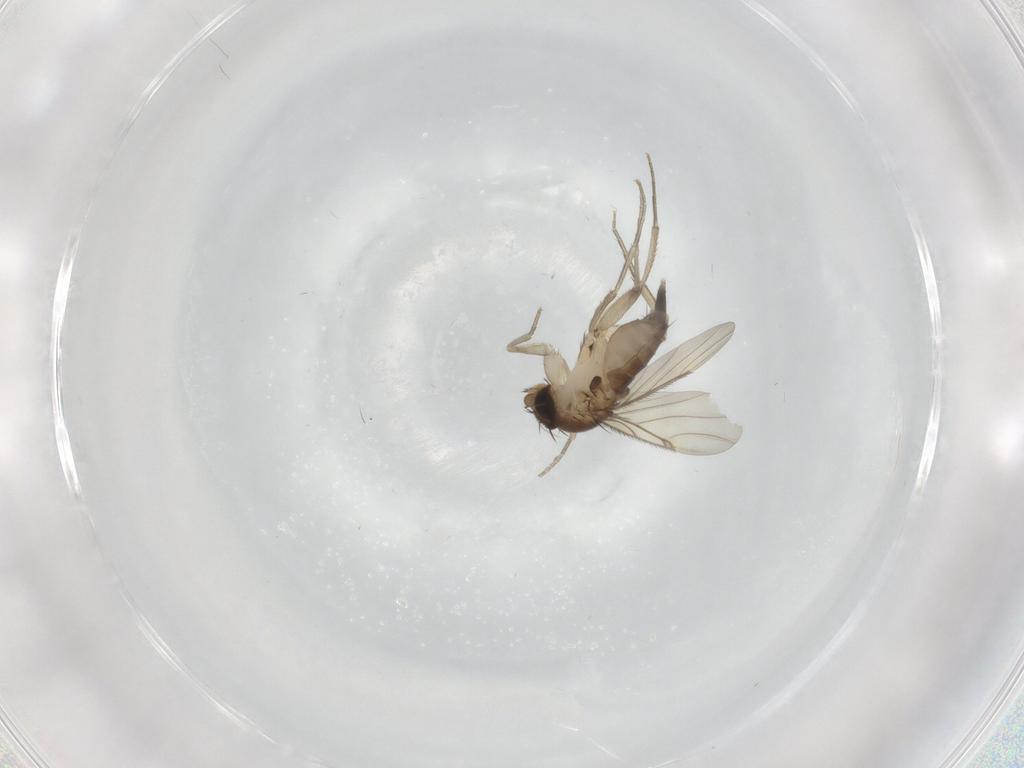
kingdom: Animalia
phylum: Arthropoda
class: Insecta
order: Diptera
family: Phoridae
